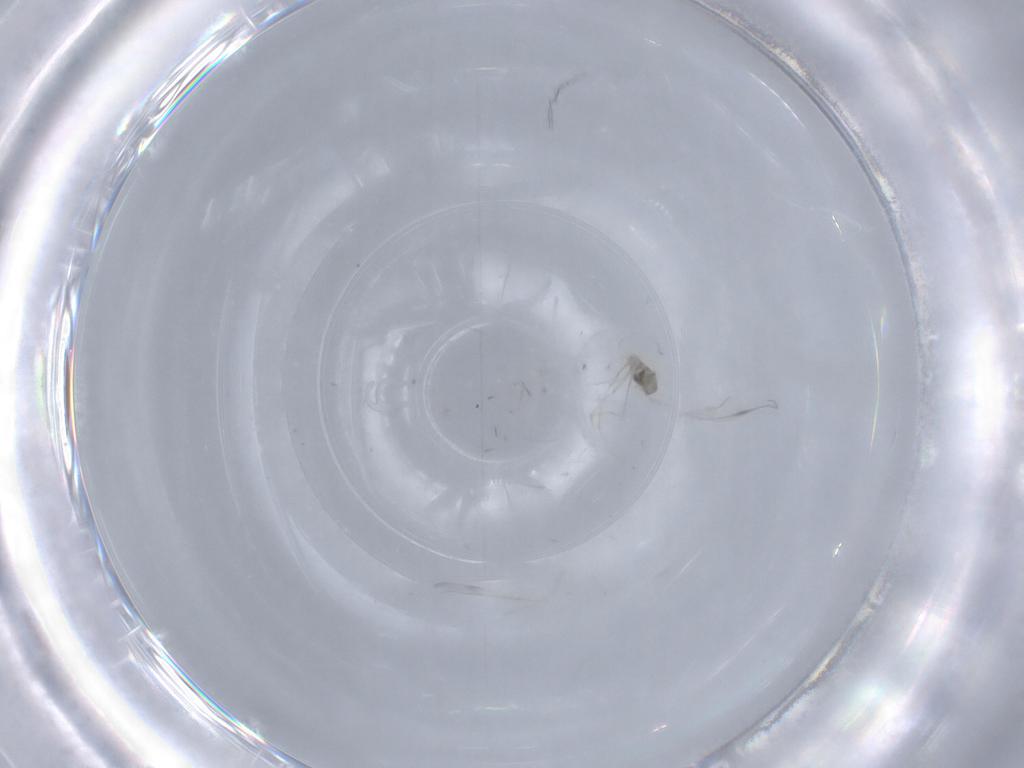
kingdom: Animalia
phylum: Arthropoda
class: Insecta
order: Diptera
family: Cecidomyiidae
